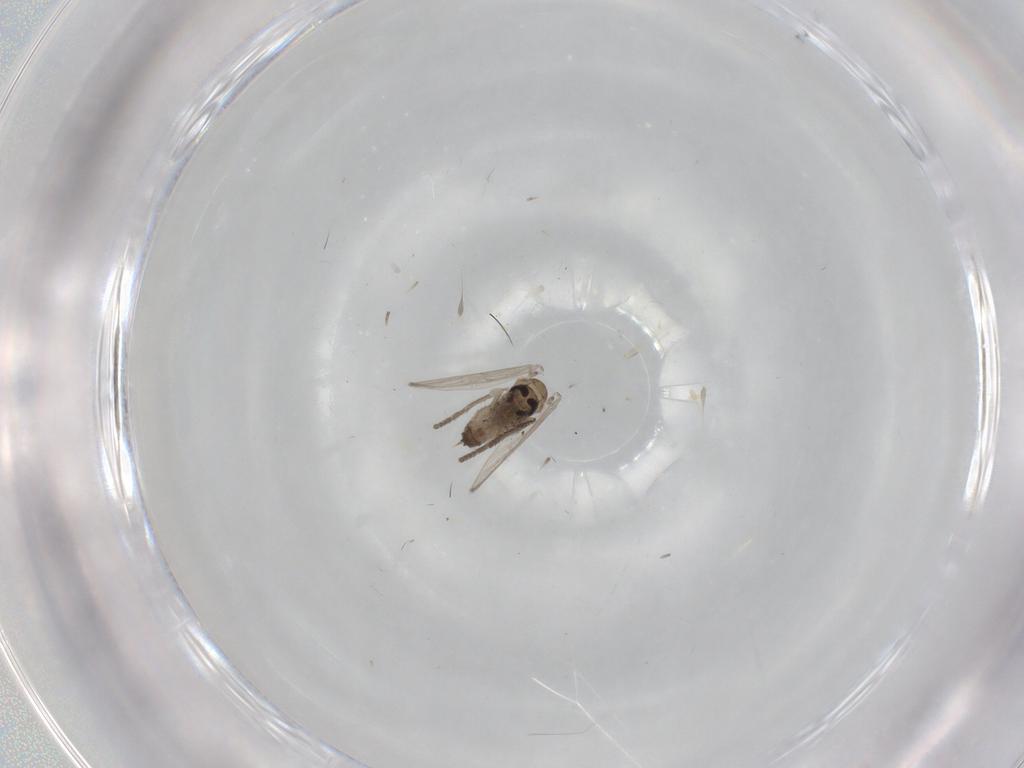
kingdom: Animalia
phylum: Arthropoda
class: Insecta
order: Diptera
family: Psychodidae
